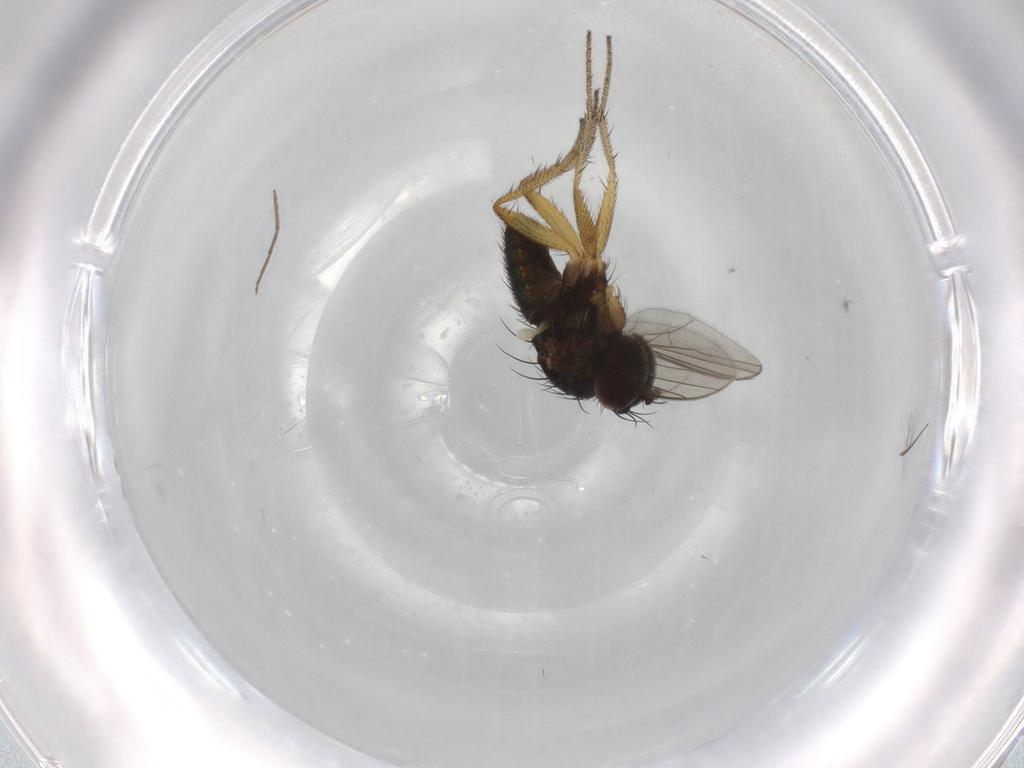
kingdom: Animalia
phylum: Arthropoda
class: Insecta
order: Diptera
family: Dolichopodidae
